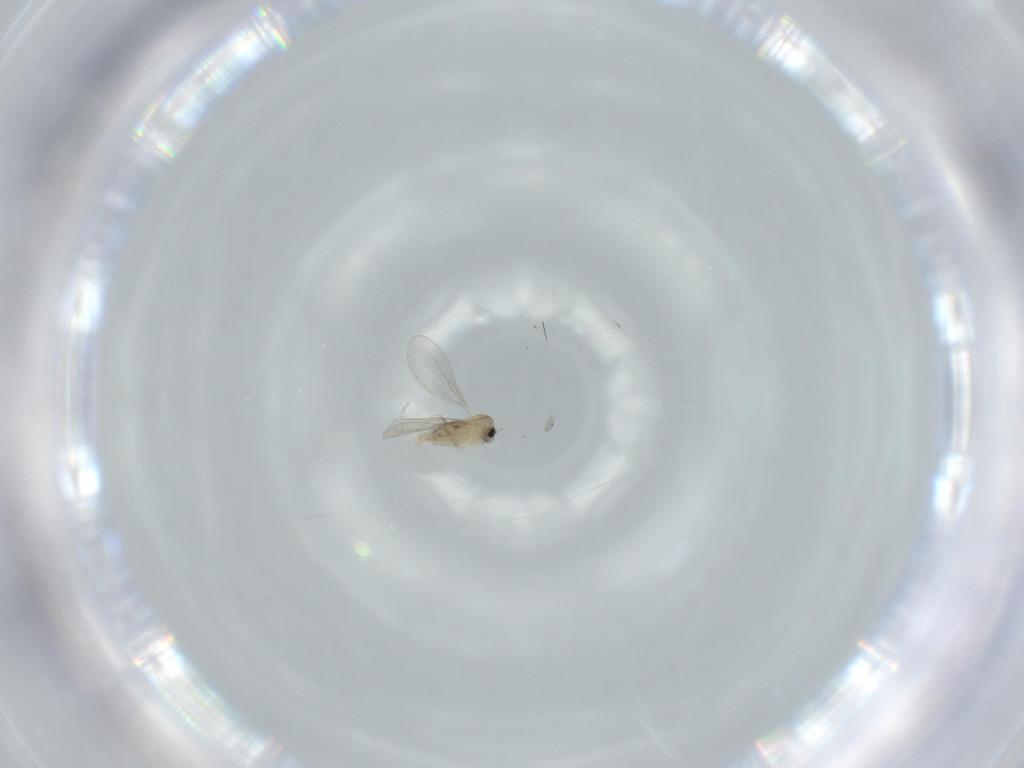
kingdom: Animalia
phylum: Arthropoda
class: Insecta
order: Diptera
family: Cecidomyiidae
